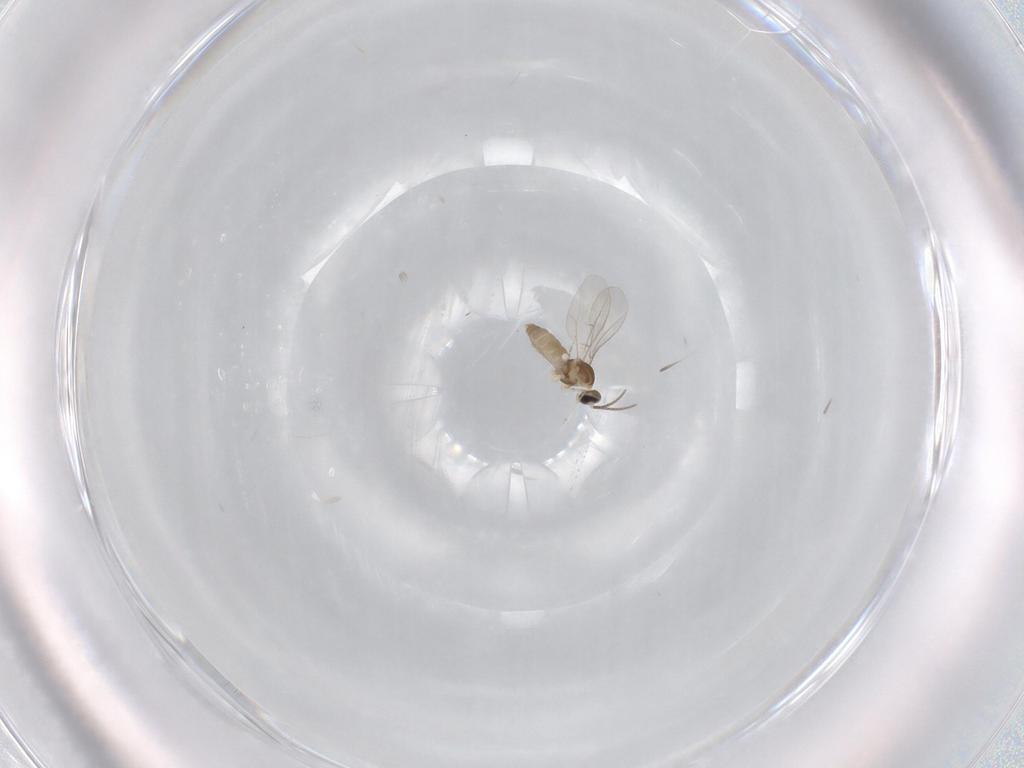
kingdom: Animalia
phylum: Arthropoda
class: Insecta
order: Diptera
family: Cecidomyiidae
